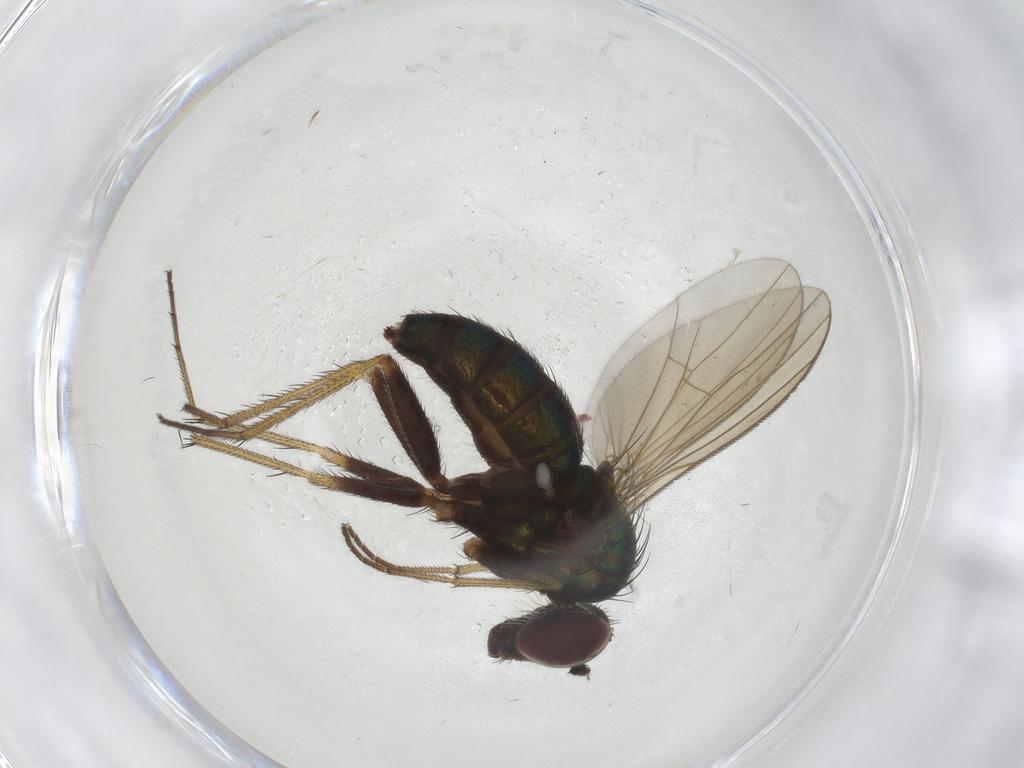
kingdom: Animalia
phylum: Arthropoda
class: Insecta
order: Diptera
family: Dolichopodidae
